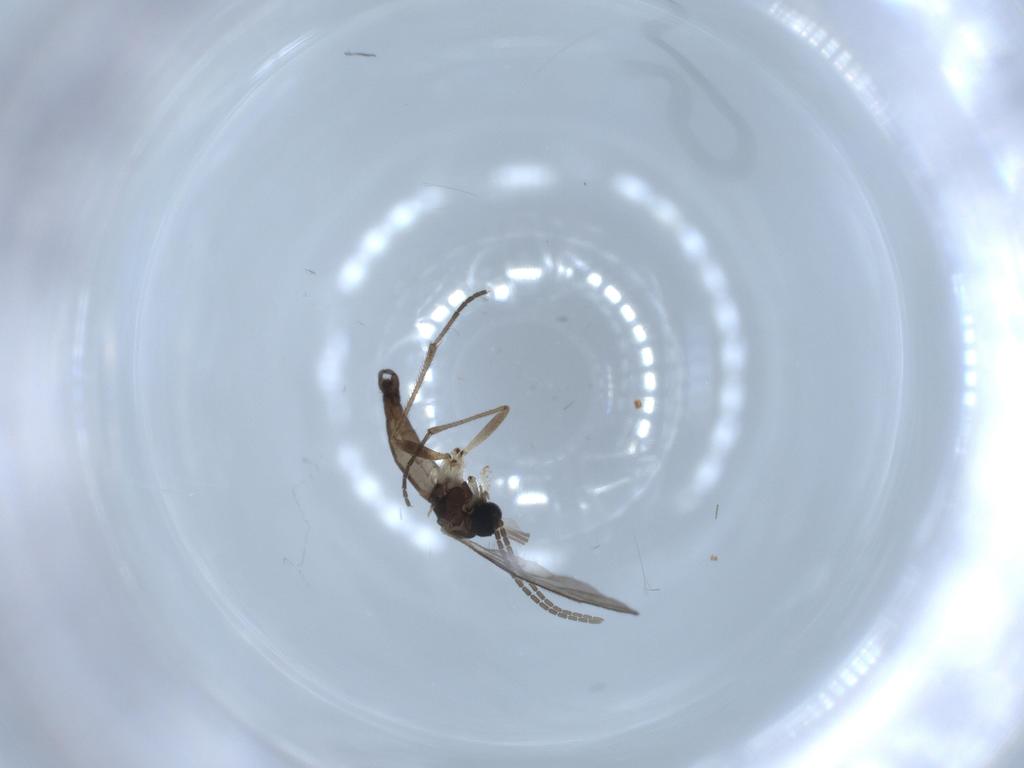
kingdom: Animalia
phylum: Arthropoda
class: Insecta
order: Diptera
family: Sciaridae
